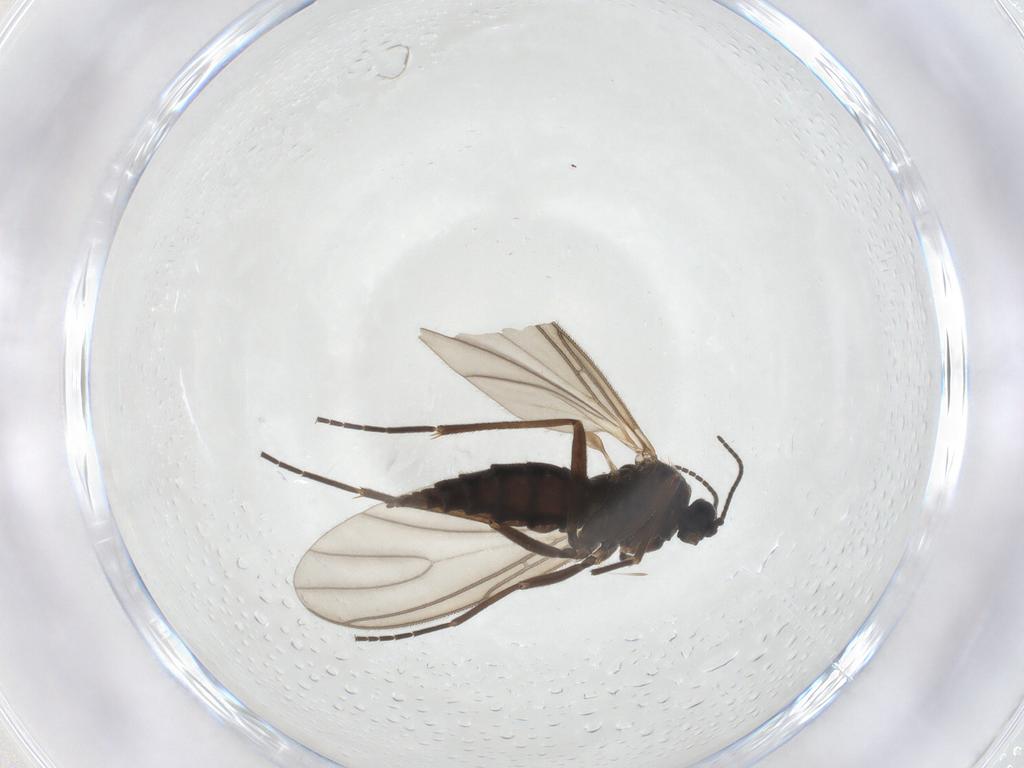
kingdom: Animalia
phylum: Arthropoda
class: Insecta
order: Diptera
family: Sciaridae
